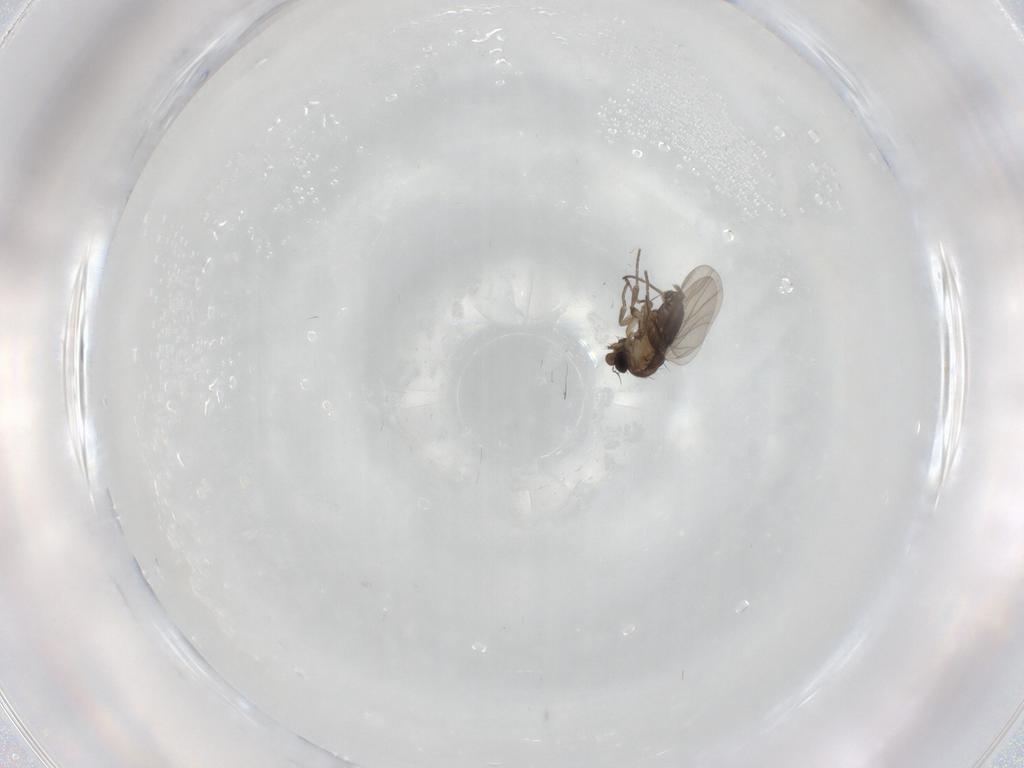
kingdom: Animalia
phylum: Arthropoda
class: Insecta
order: Diptera
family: Phoridae
